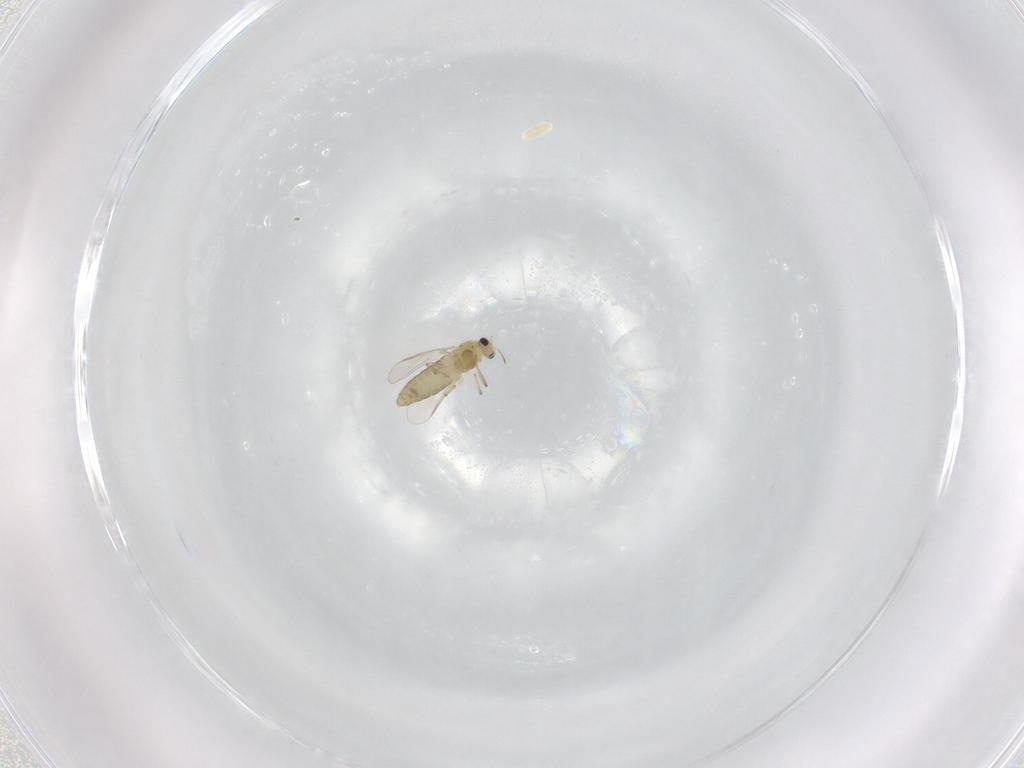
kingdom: Animalia
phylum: Arthropoda
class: Insecta
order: Diptera
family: Chironomidae
